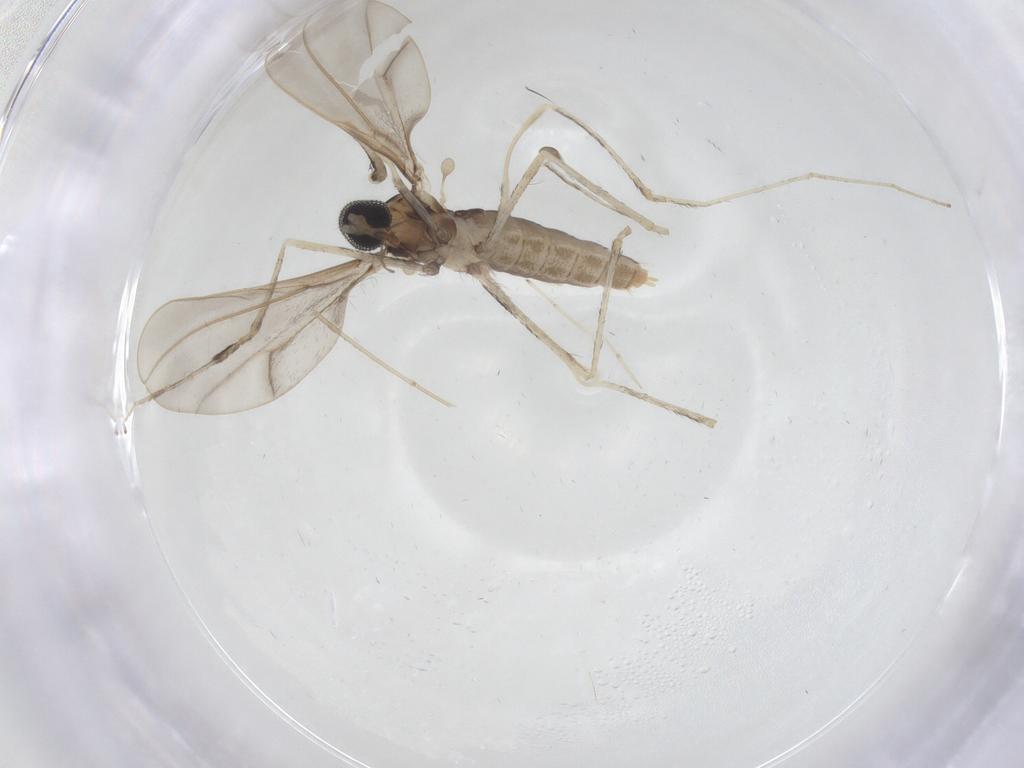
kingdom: Animalia
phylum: Arthropoda
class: Insecta
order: Diptera
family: Cecidomyiidae
